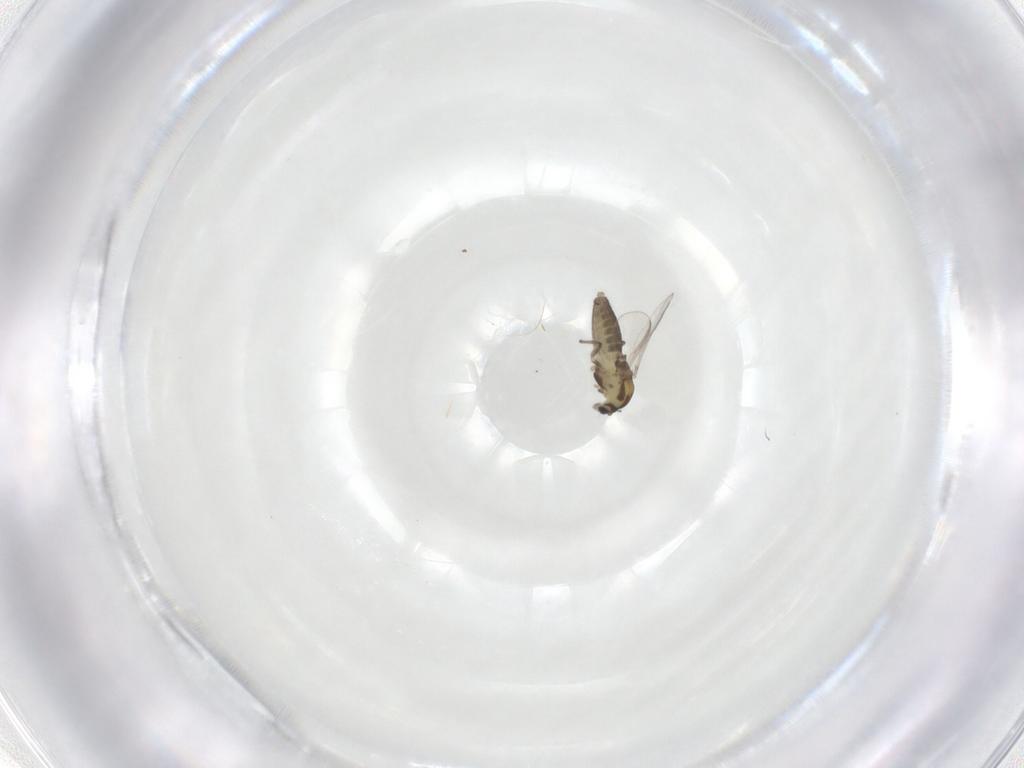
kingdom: Animalia
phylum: Arthropoda
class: Insecta
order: Diptera
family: Chironomidae
